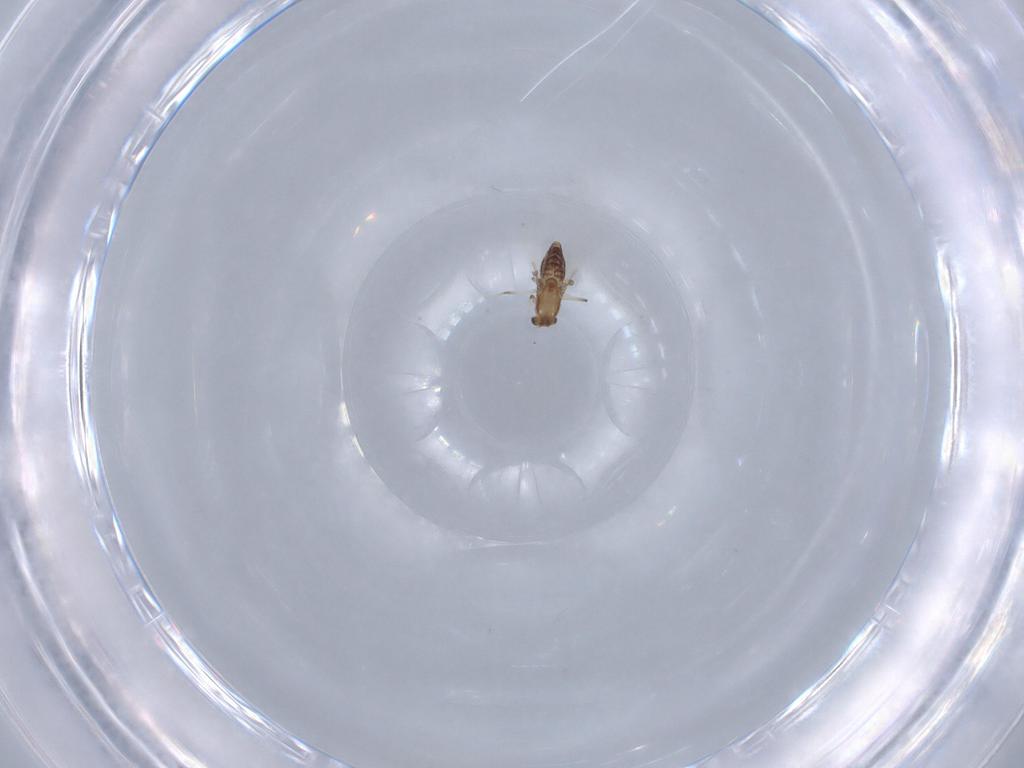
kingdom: Animalia
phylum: Arthropoda
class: Insecta
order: Diptera
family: Chironomidae
